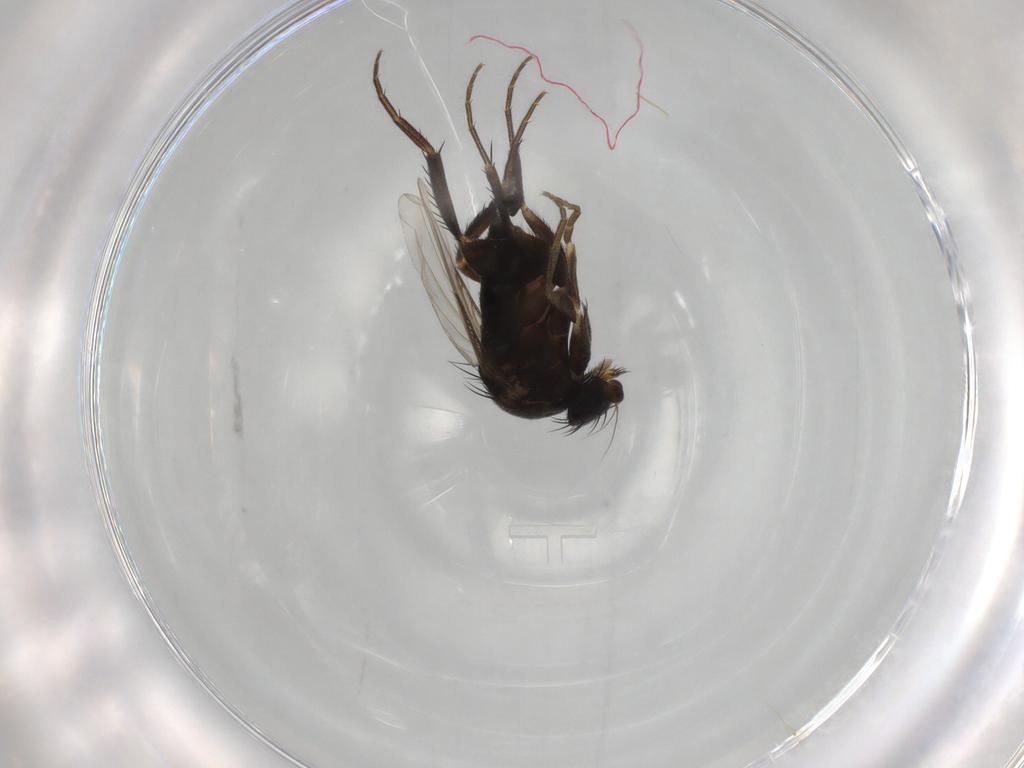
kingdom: Animalia
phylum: Arthropoda
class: Insecta
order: Diptera
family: Phoridae
